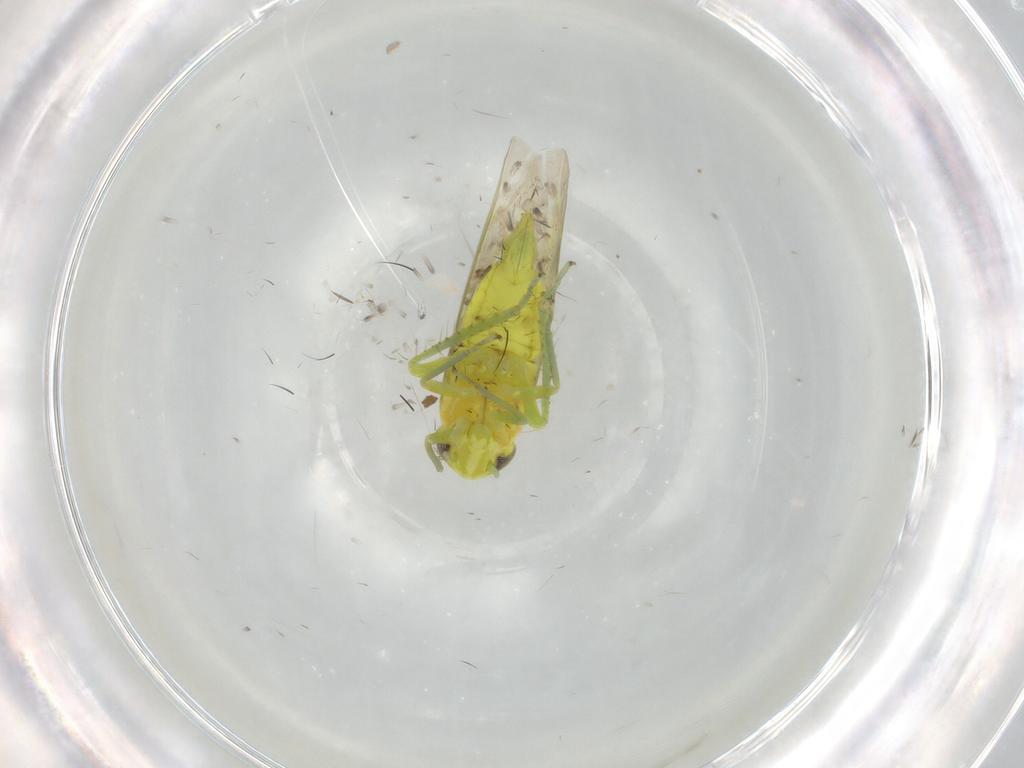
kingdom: Animalia
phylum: Arthropoda
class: Insecta
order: Hemiptera
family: Cicadellidae
